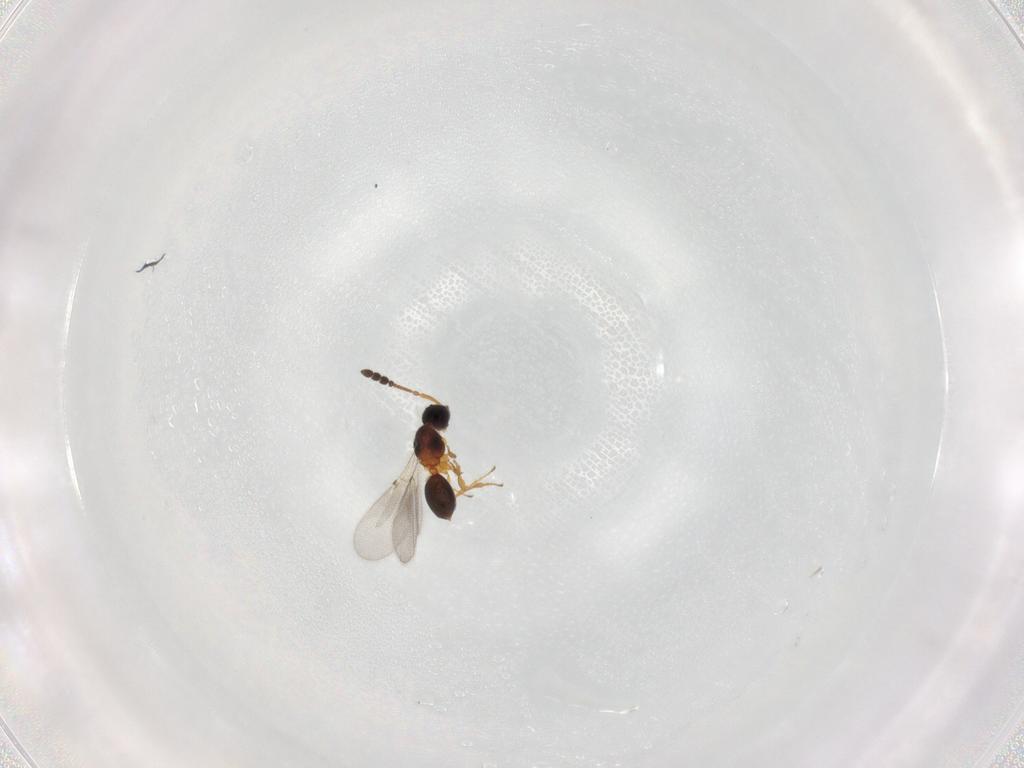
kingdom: Animalia
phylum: Arthropoda
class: Insecta
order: Hymenoptera
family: Diapriidae
